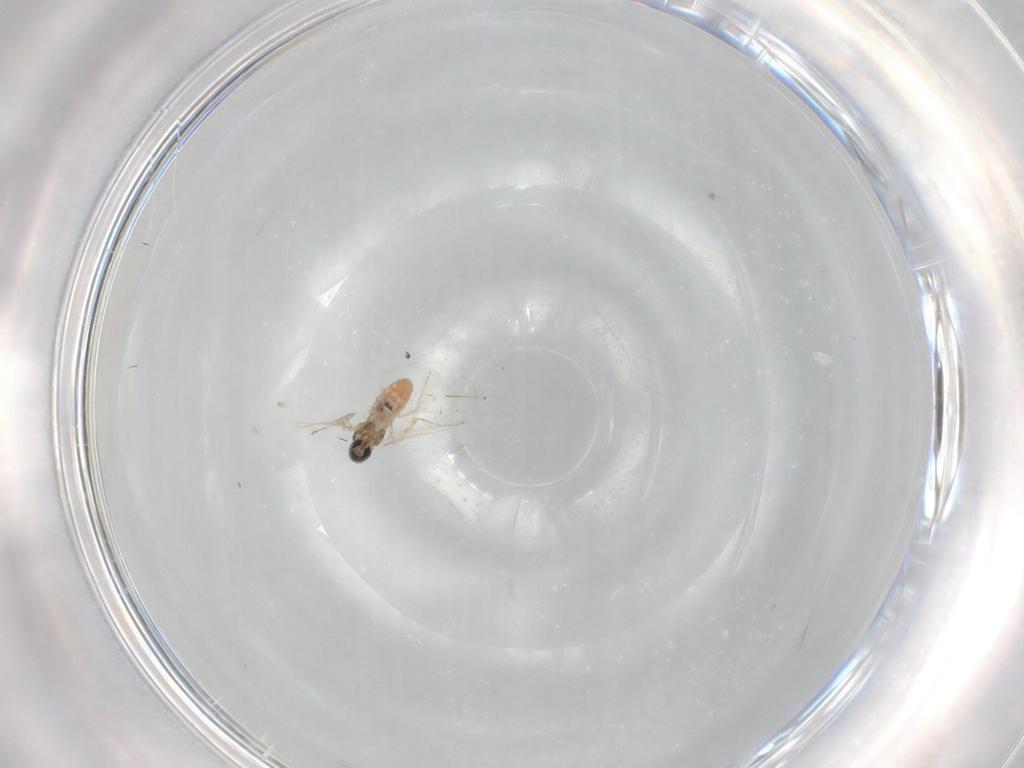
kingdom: Animalia
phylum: Arthropoda
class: Insecta
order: Diptera
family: Cecidomyiidae
